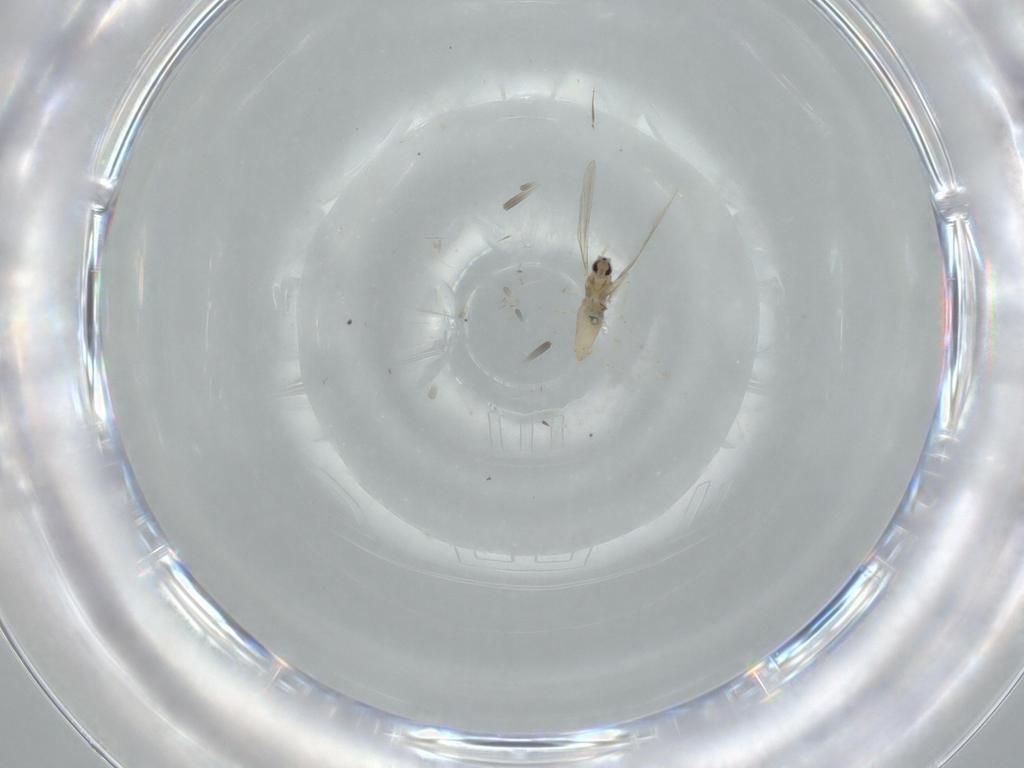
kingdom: Animalia
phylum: Arthropoda
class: Insecta
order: Diptera
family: Cecidomyiidae
